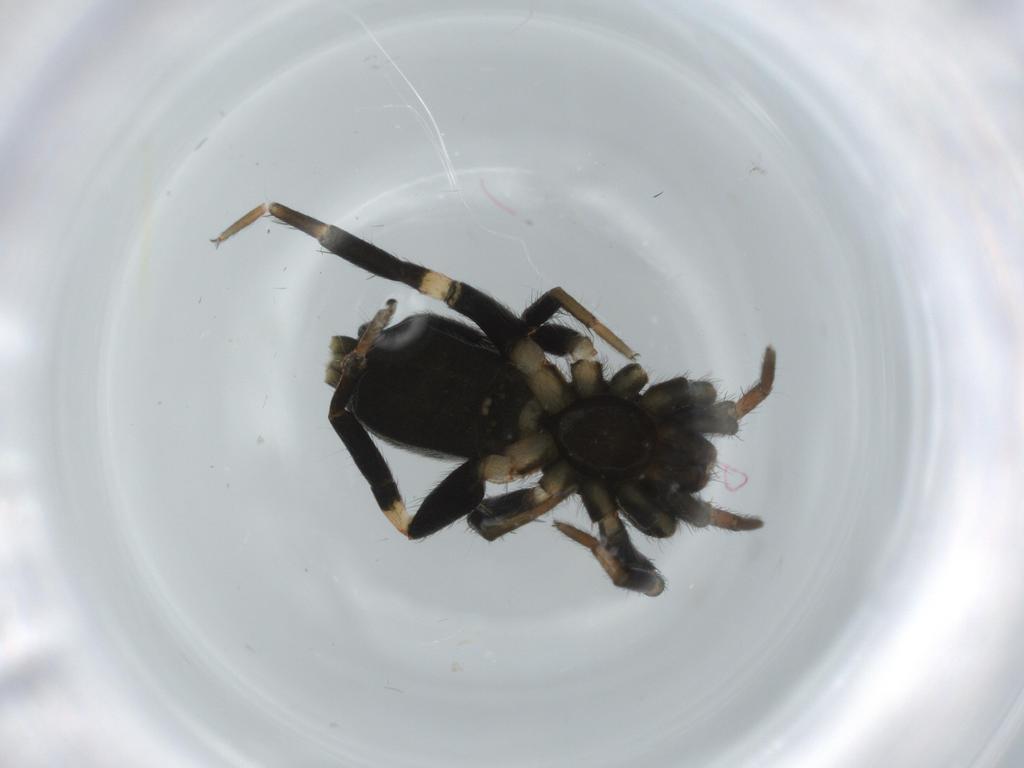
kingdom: Animalia
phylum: Arthropoda
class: Arachnida
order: Araneae
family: Gnaphosidae
